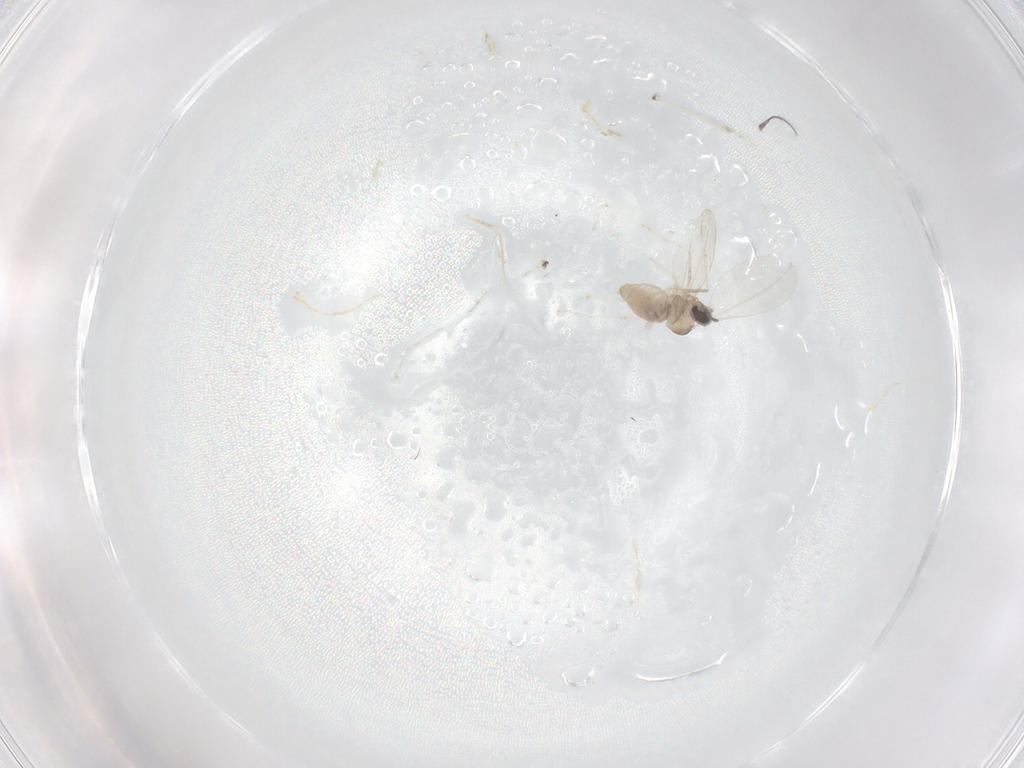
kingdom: Animalia
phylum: Arthropoda
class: Insecta
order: Diptera
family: Cecidomyiidae
